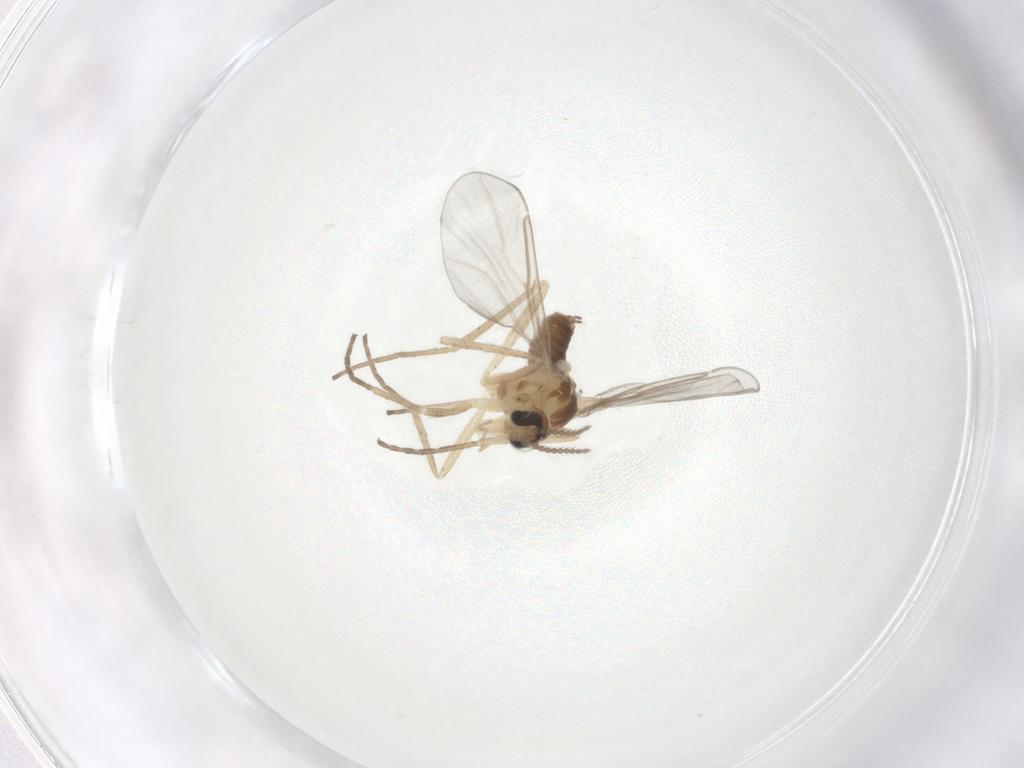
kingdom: Animalia
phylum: Arthropoda
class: Insecta
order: Diptera
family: Cecidomyiidae
